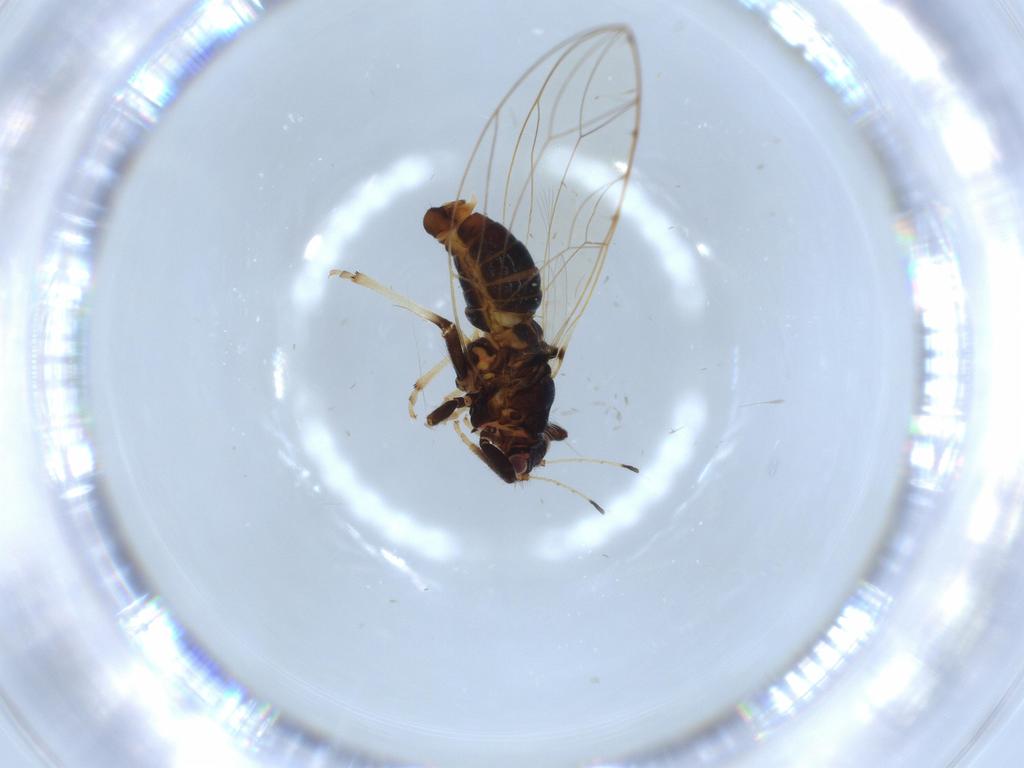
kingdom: Animalia
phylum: Arthropoda
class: Insecta
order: Hemiptera
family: Triozidae
